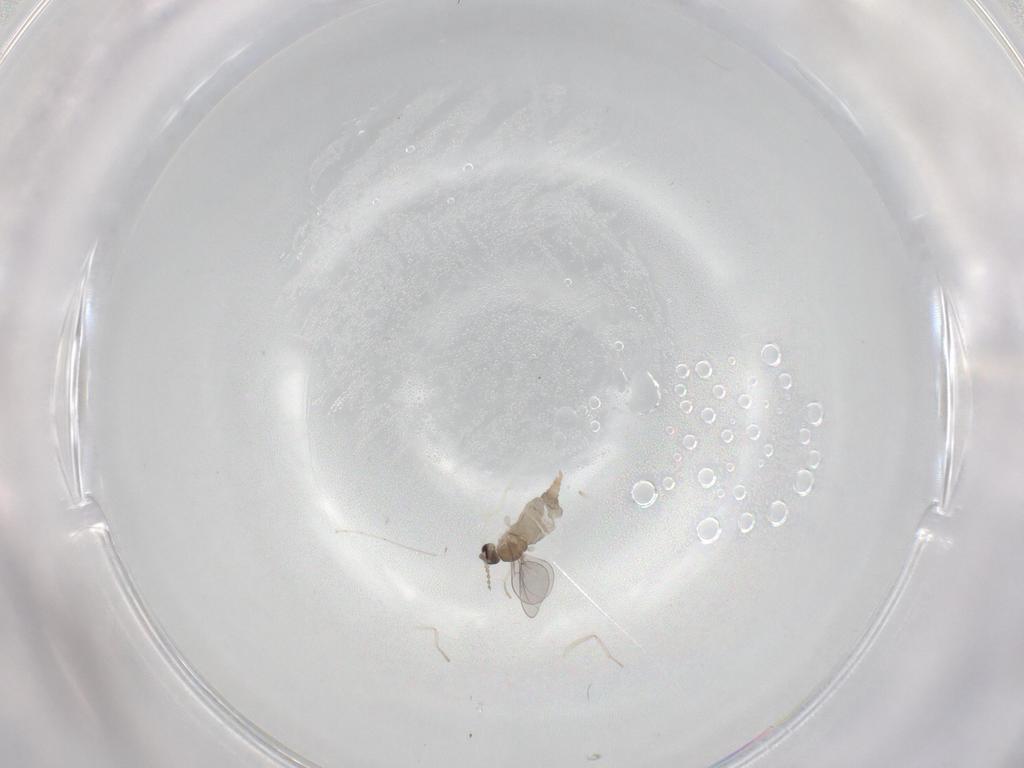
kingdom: Animalia
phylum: Arthropoda
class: Insecta
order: Diptera
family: Cecidomyiidae
